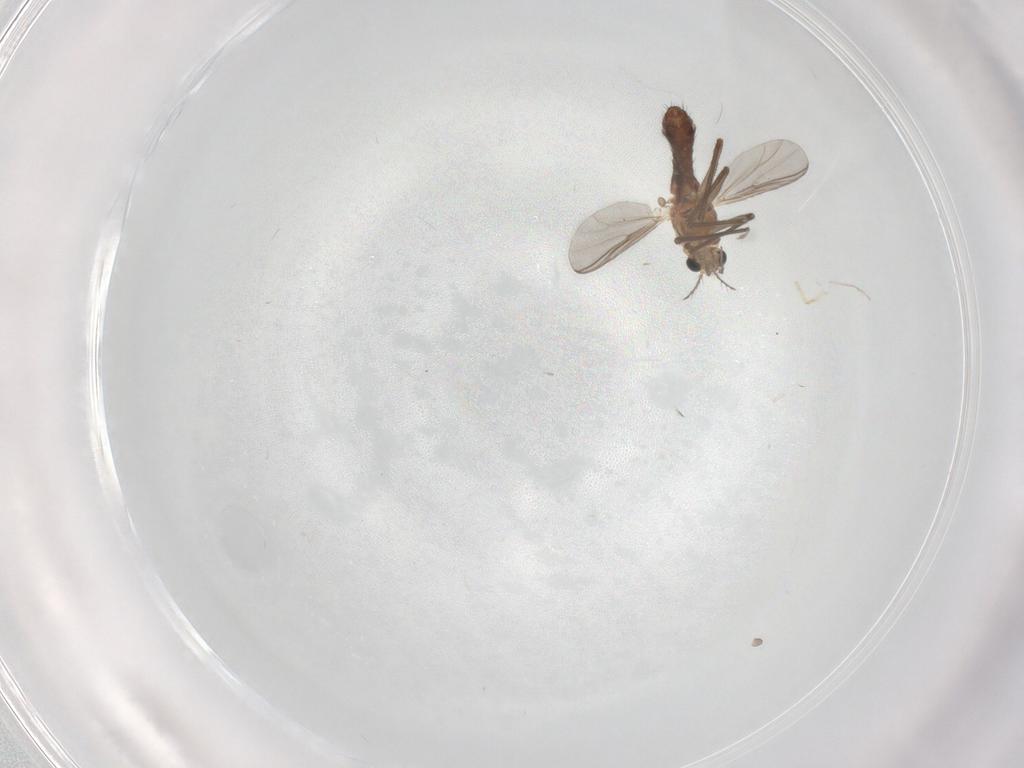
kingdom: Animalia
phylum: Arthropoda
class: Insecta
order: Diptera
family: Chironomidae
